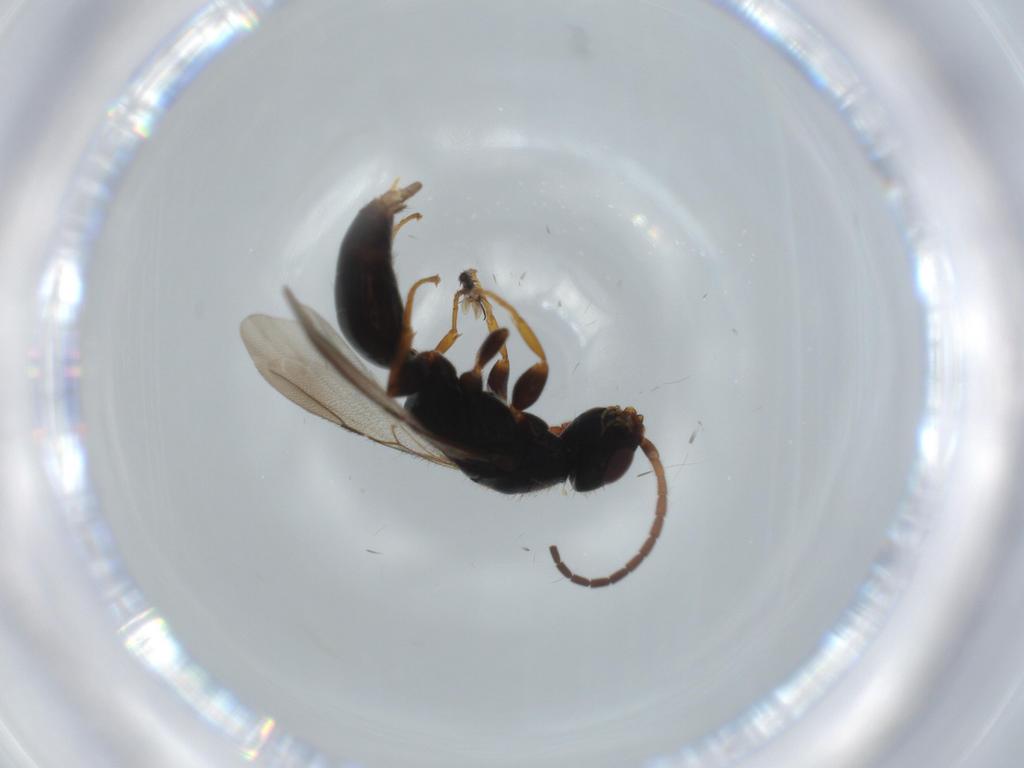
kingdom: Animalia
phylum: Arthropoda
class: Insecta
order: Hymenoptera
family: Bethylidae
